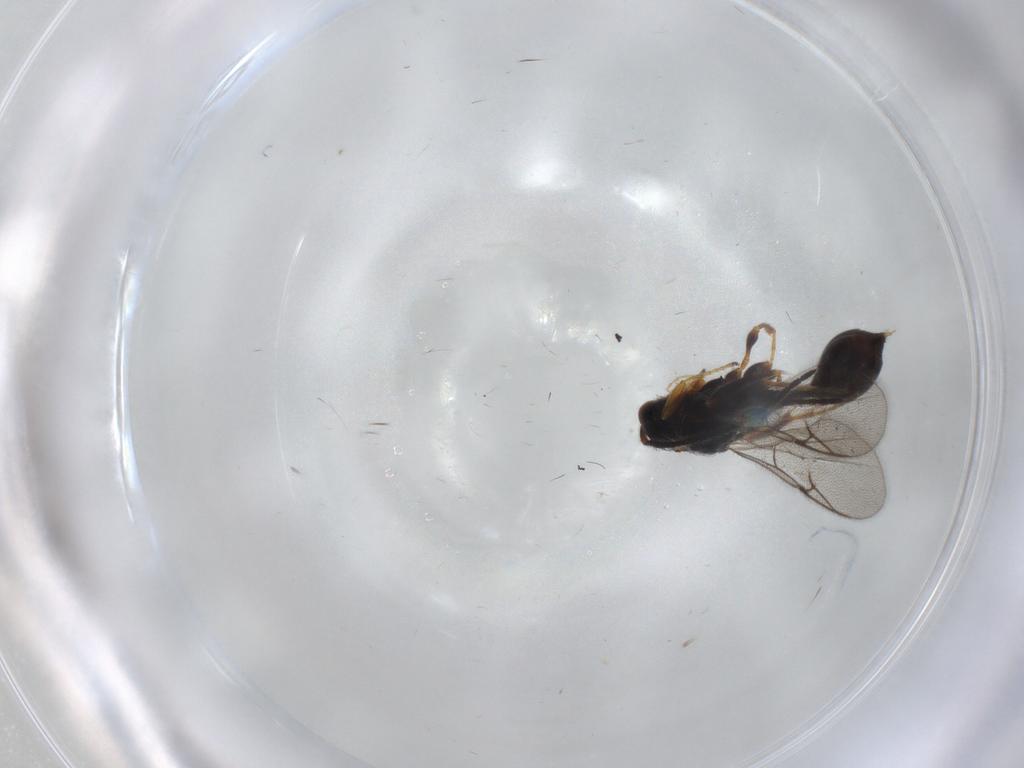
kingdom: Animalia
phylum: Arthropoda
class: Insecta
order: Hymenoptera
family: Diapriidae
